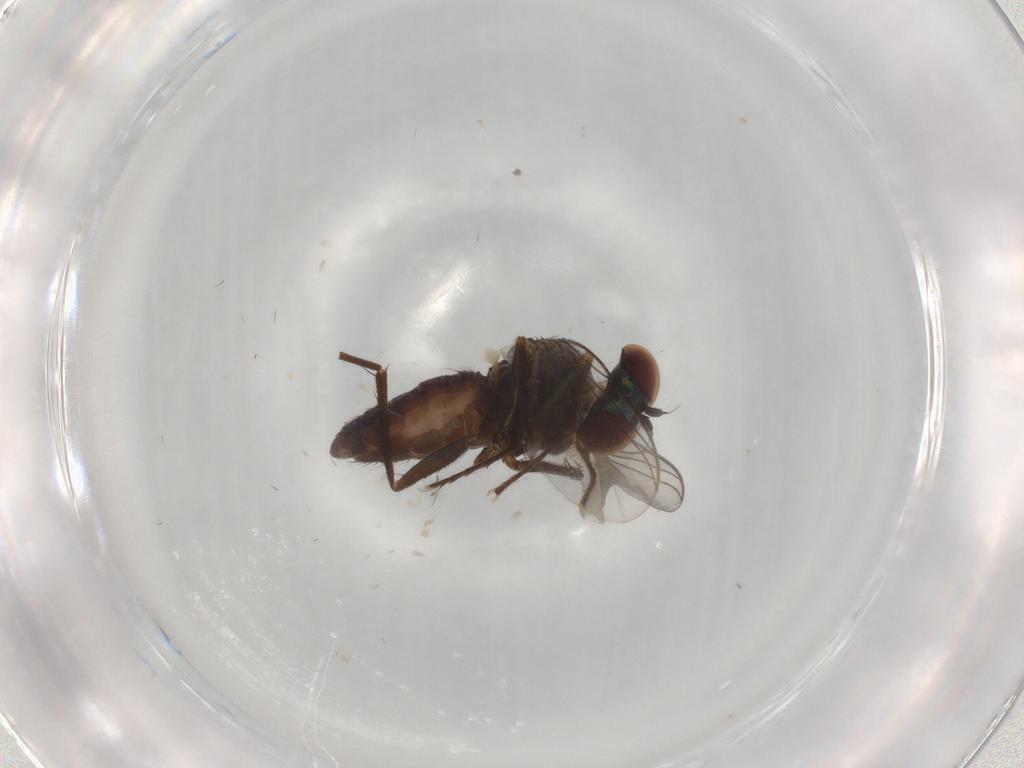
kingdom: Animalia
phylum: Arthropoda
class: Insecta
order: Diptera
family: Dolichopodidae
